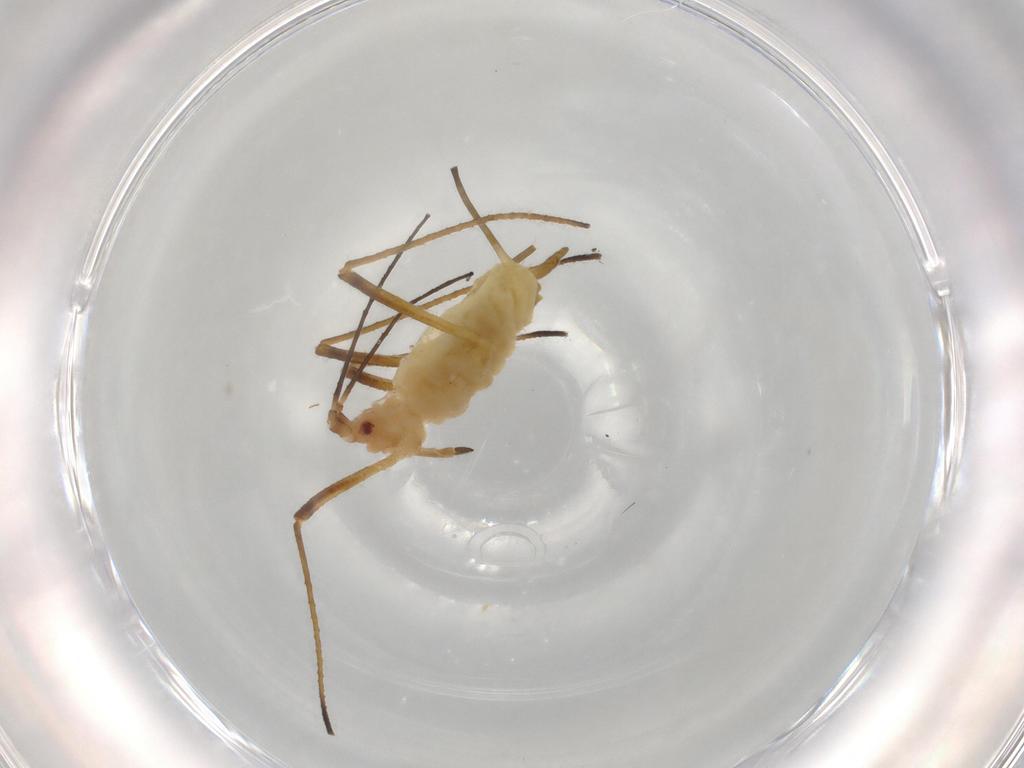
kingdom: Animalia
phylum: Arthropoda
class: Insecta
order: Hemiptera
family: Aphididae
